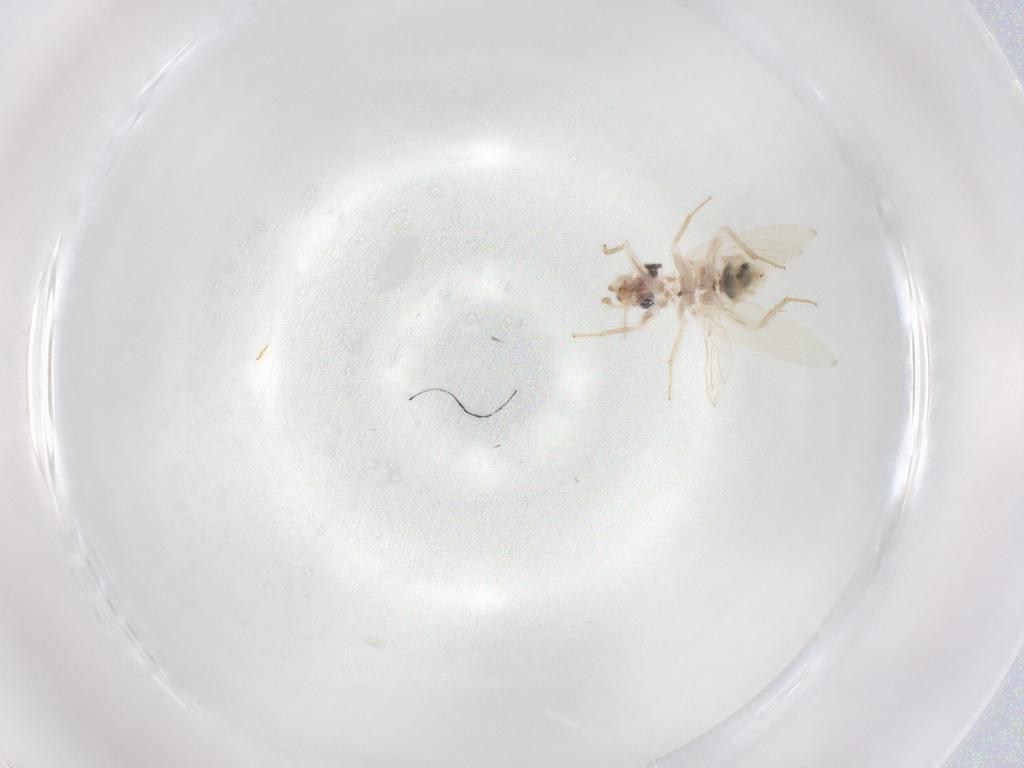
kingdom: Animalia
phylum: Arthropoda
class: Insecta
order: Psocodea
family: Lepidopsocidae
